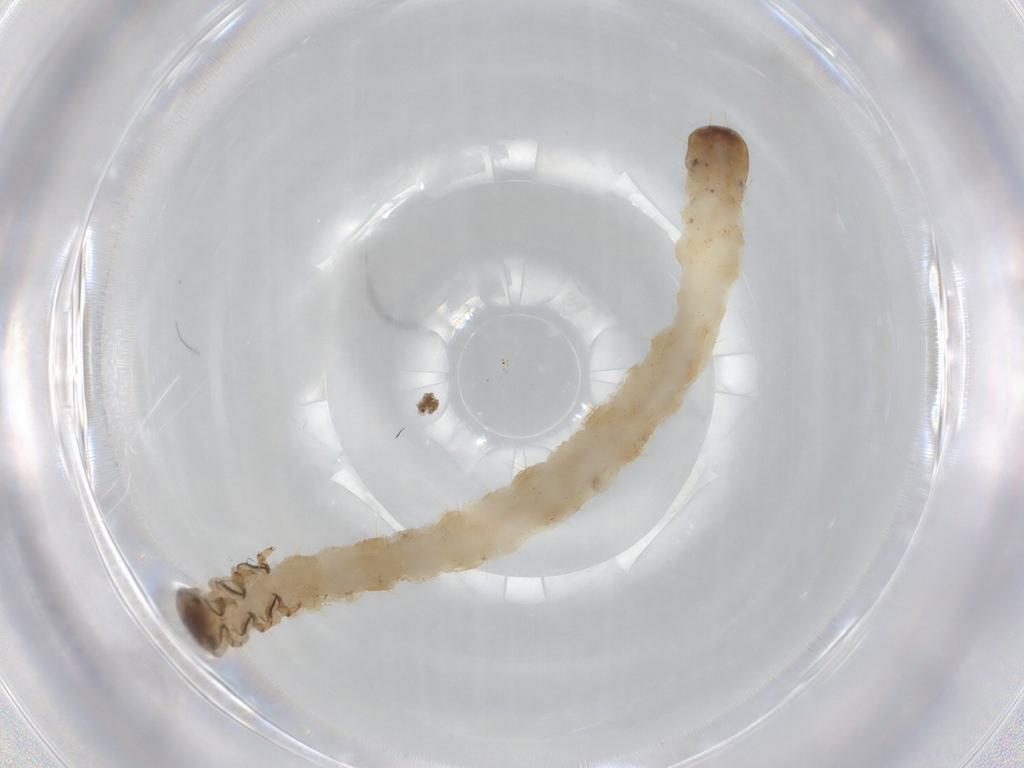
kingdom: Animalia
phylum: Arthropoda
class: Insecta
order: Coleoptera
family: Chrysomelidae
